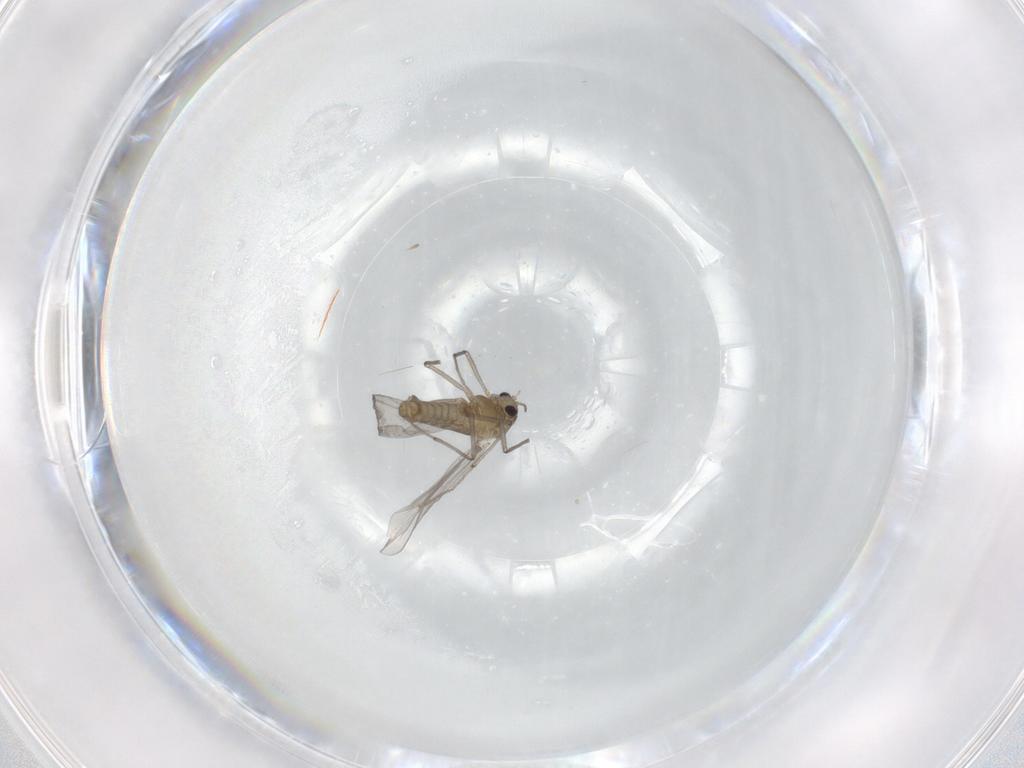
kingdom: Animalia
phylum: Arthropoda
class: Insecta
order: Diptera
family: Chironomidae
